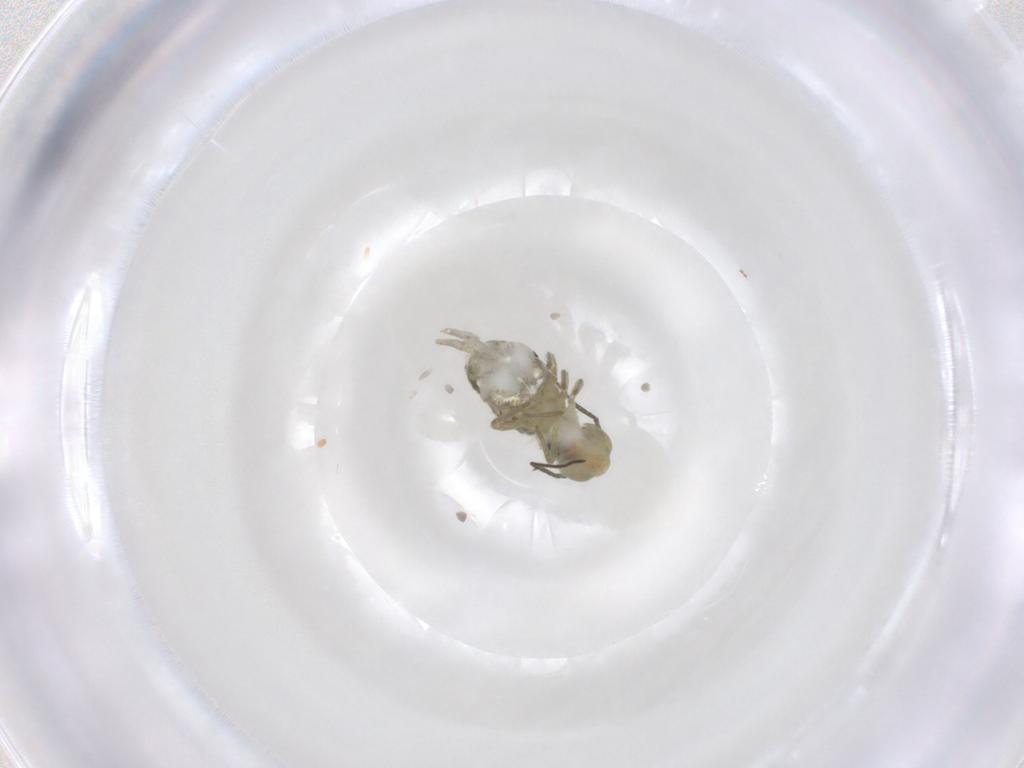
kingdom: Animalia
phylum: Arthropoda
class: Collembola
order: Symphypleona
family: Sminthuridae
